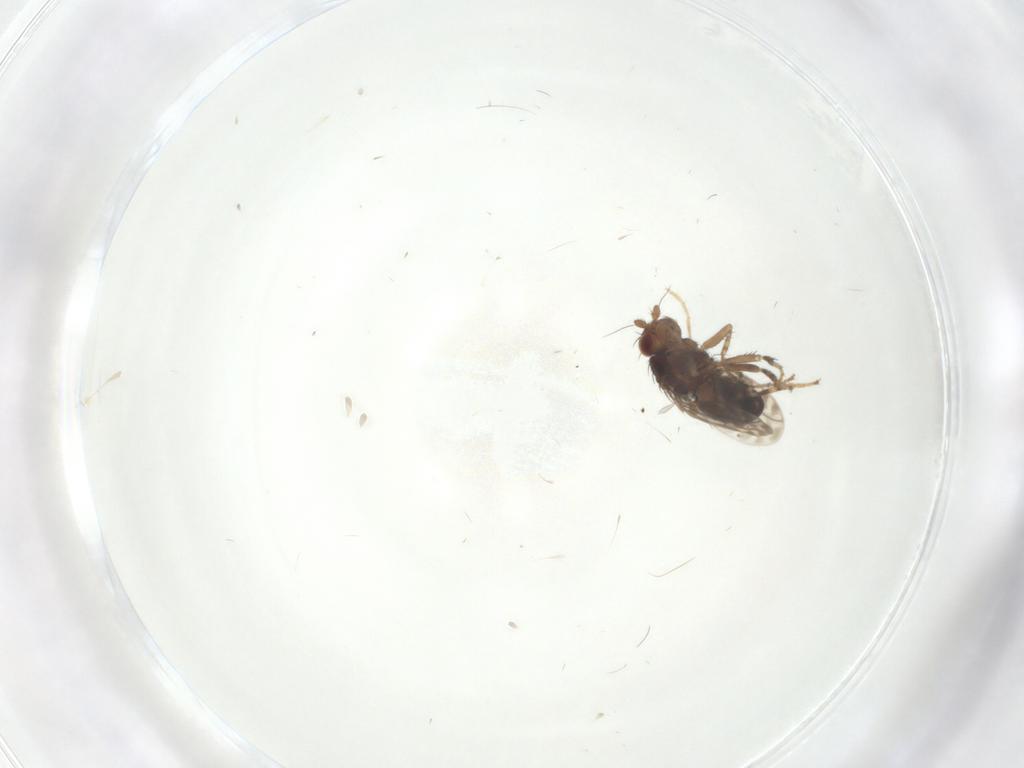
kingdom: Animalia
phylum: Arthropoda
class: Insecta
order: Diptera
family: Sphaeroceridae
